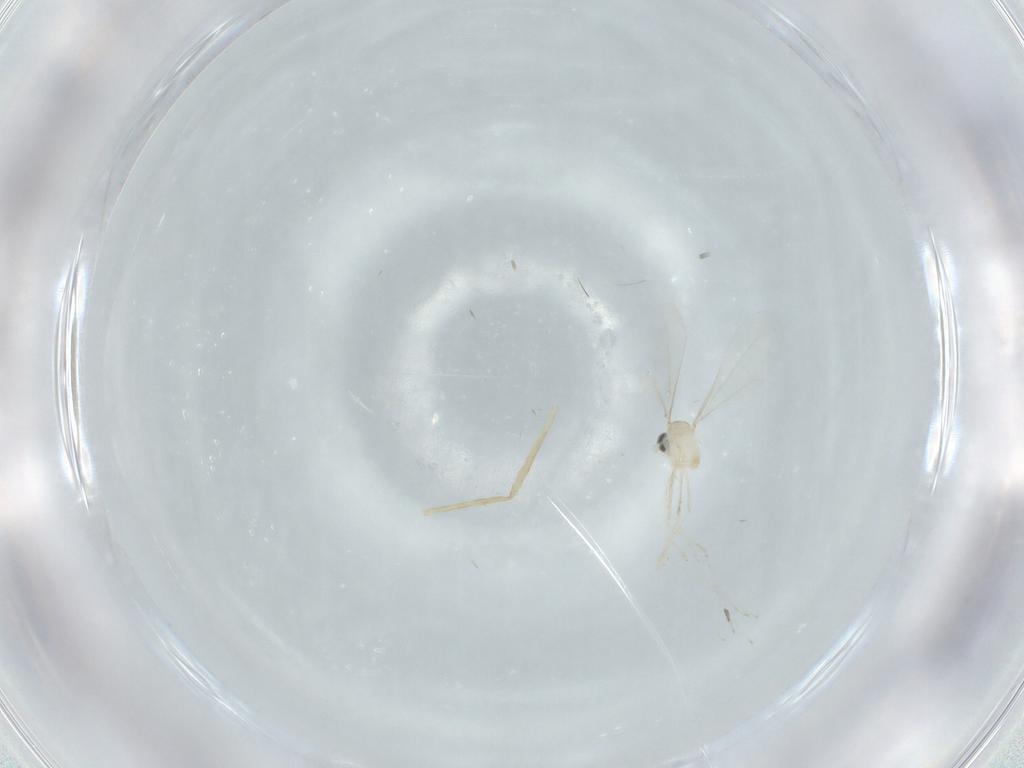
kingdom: Animalia
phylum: Arthropoda
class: Insecta
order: Diptera
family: Chironomidae
